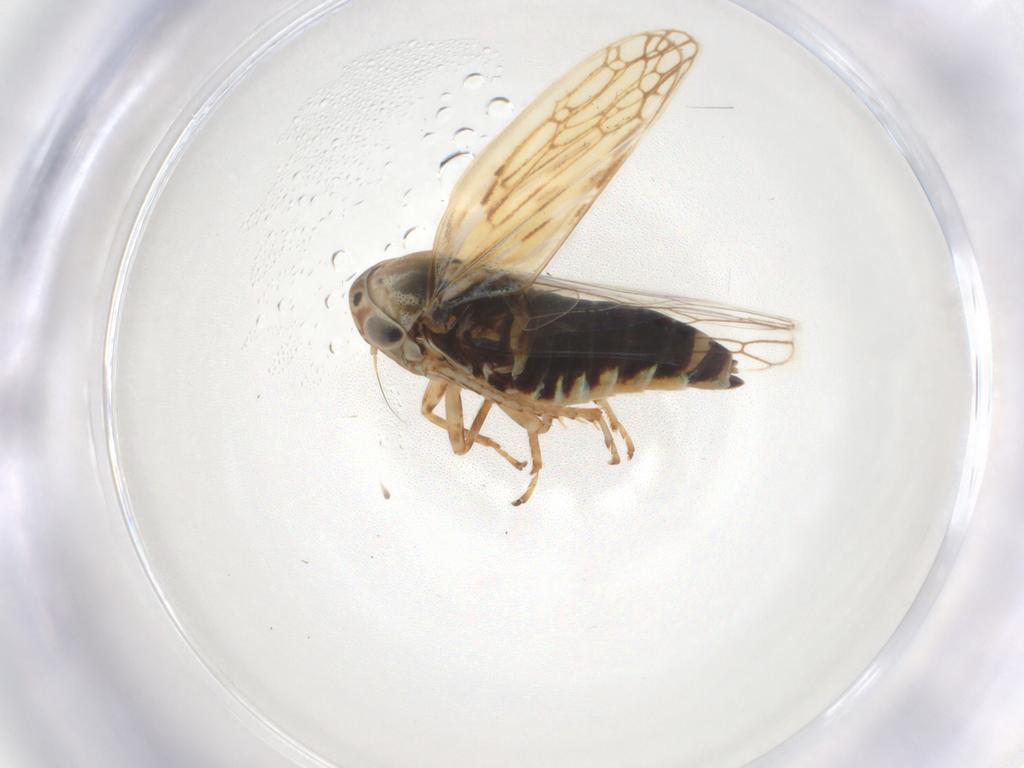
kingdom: Animalia
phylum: Arthropoda
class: Insecta
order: Hemiptera
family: Cicadellidae
